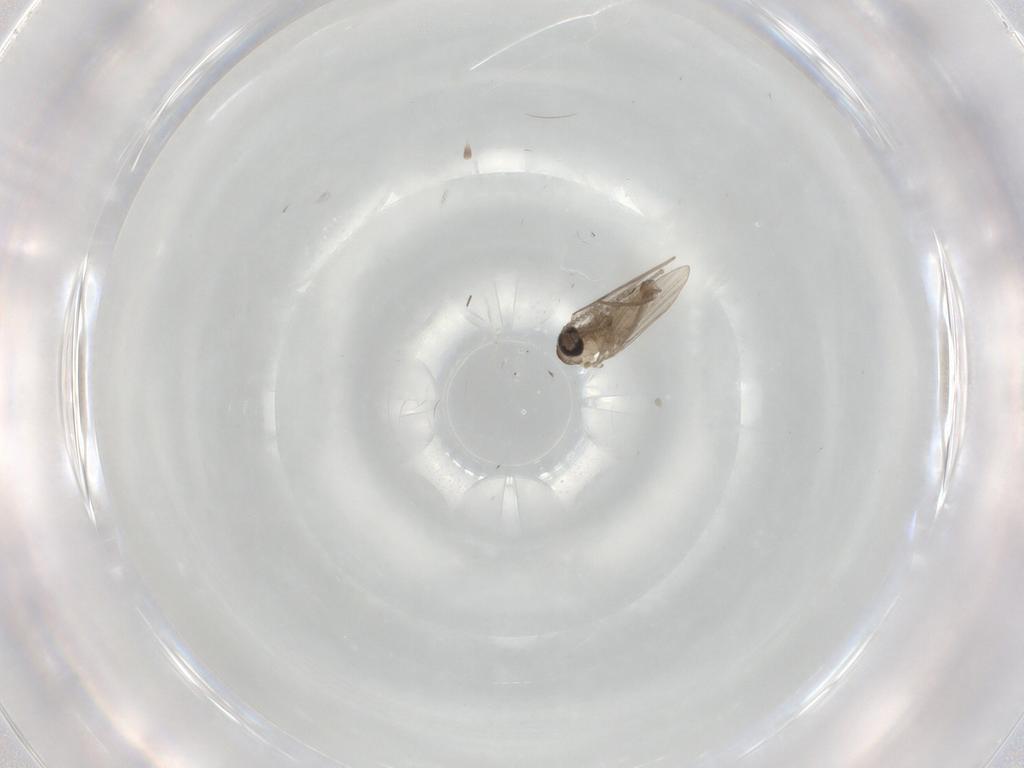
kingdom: Animalia
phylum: Arthropoda
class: Insecta
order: Diptera
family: Psychodidae
